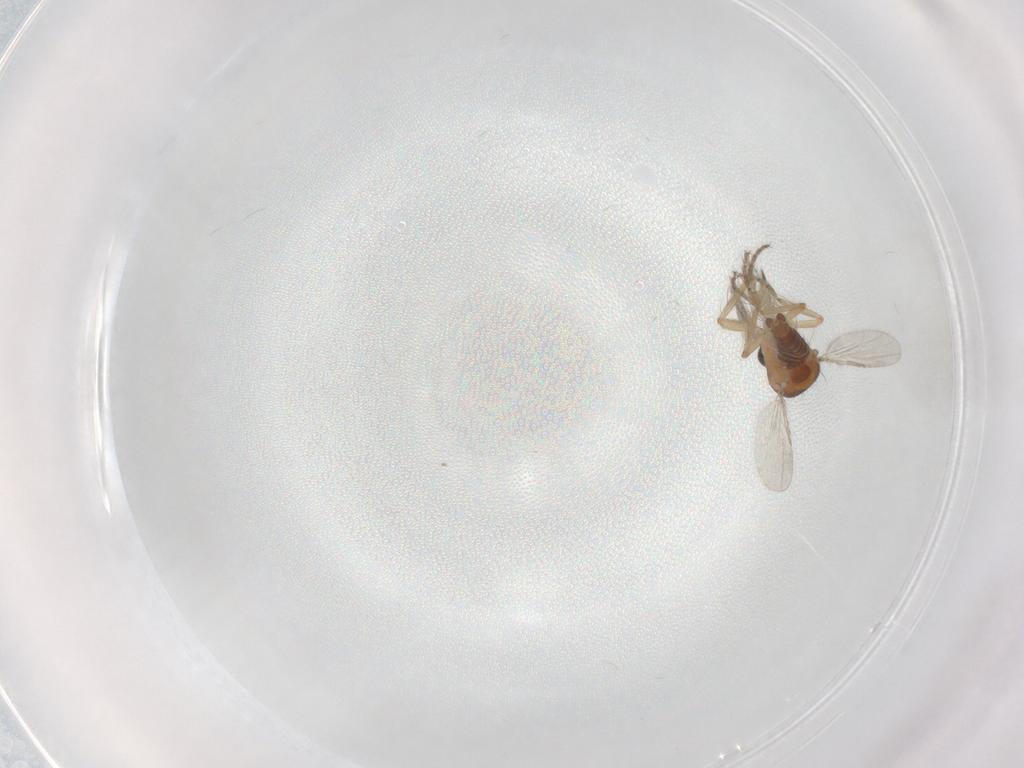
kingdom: Animalia
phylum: Arthropoda
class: Insecta
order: Diptera
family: Ceratopogonidae
